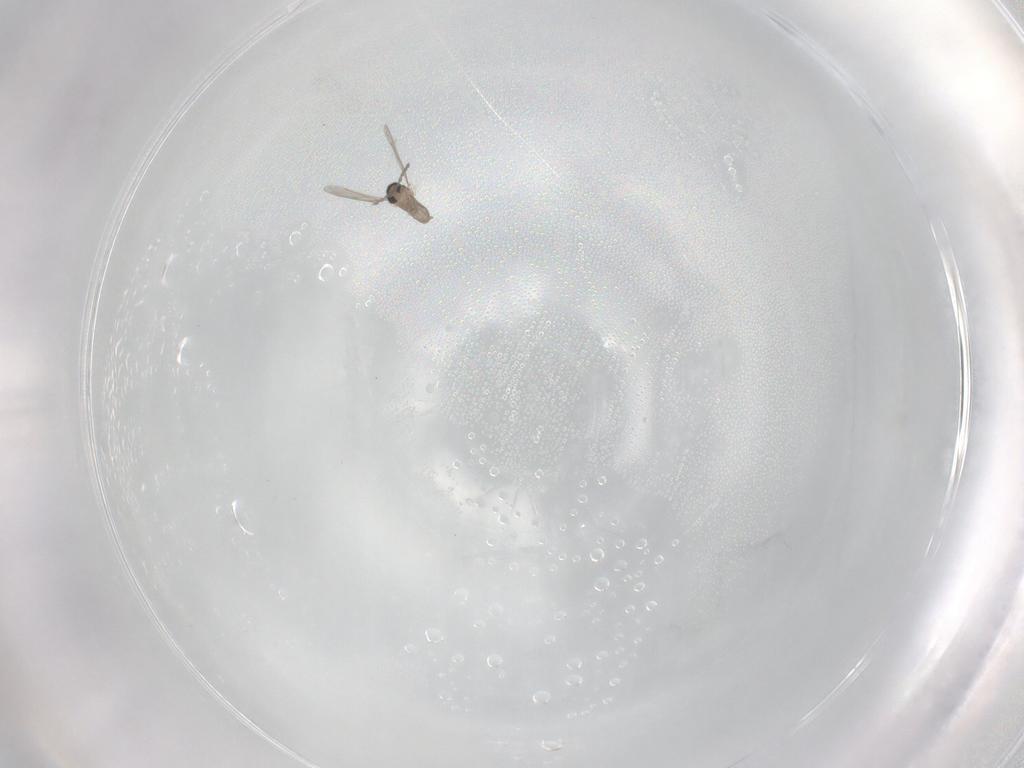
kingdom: Animalia
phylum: Arthropoda
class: Insecta
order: Diptera
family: Cecidomyiidae
